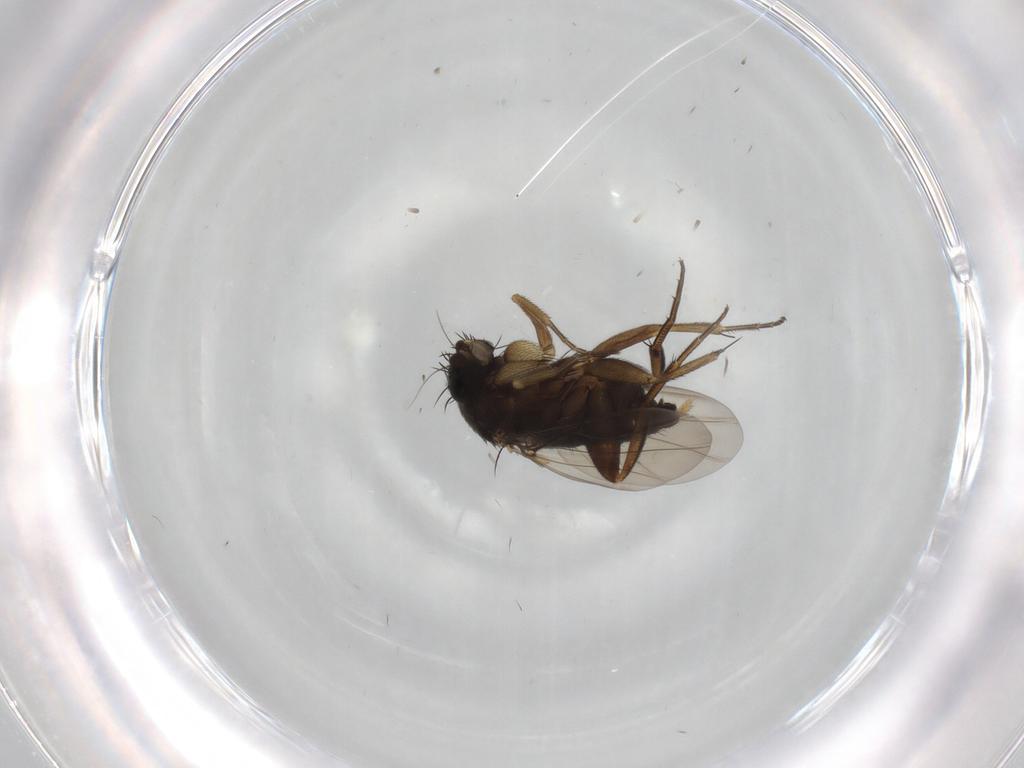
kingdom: Animalia
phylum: Arthropoda
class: Insecta
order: Diptera
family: Phoridae
